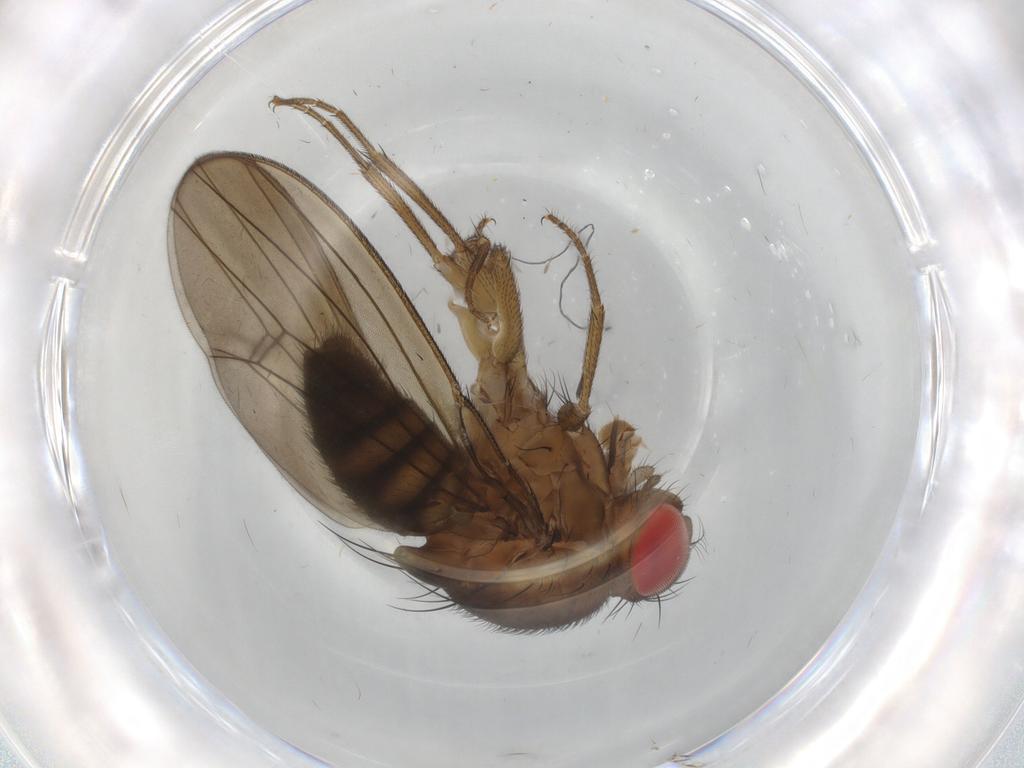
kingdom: Animalia
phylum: Arthropoda
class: Insecta
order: Diptera
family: Drosophilidae
